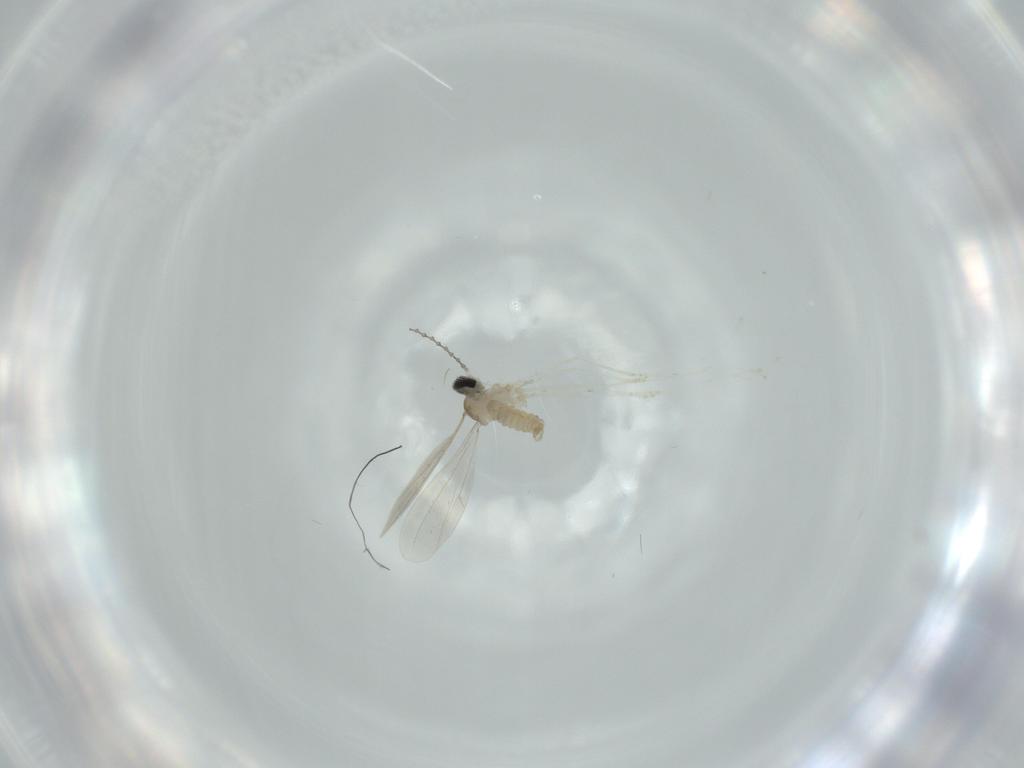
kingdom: Animalia
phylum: Arthropoda
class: Insecta
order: Diptera
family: Cecidomyiidae
